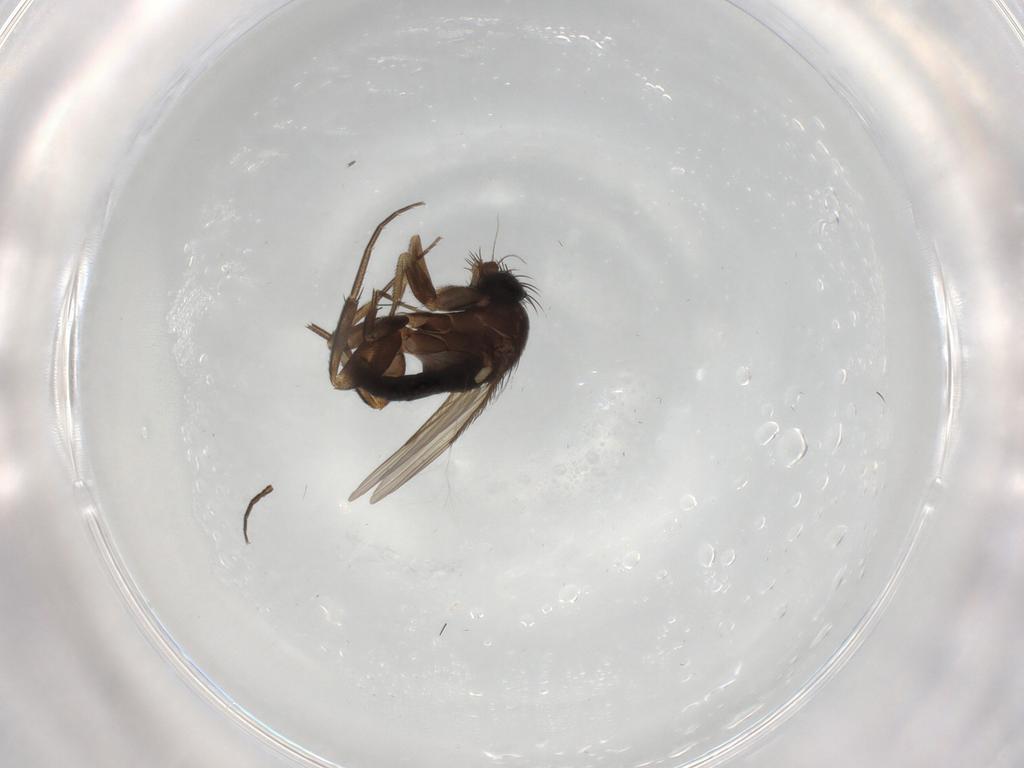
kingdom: Animalia
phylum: Arthropoda
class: Insecta
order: Diptera
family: Phoridae
